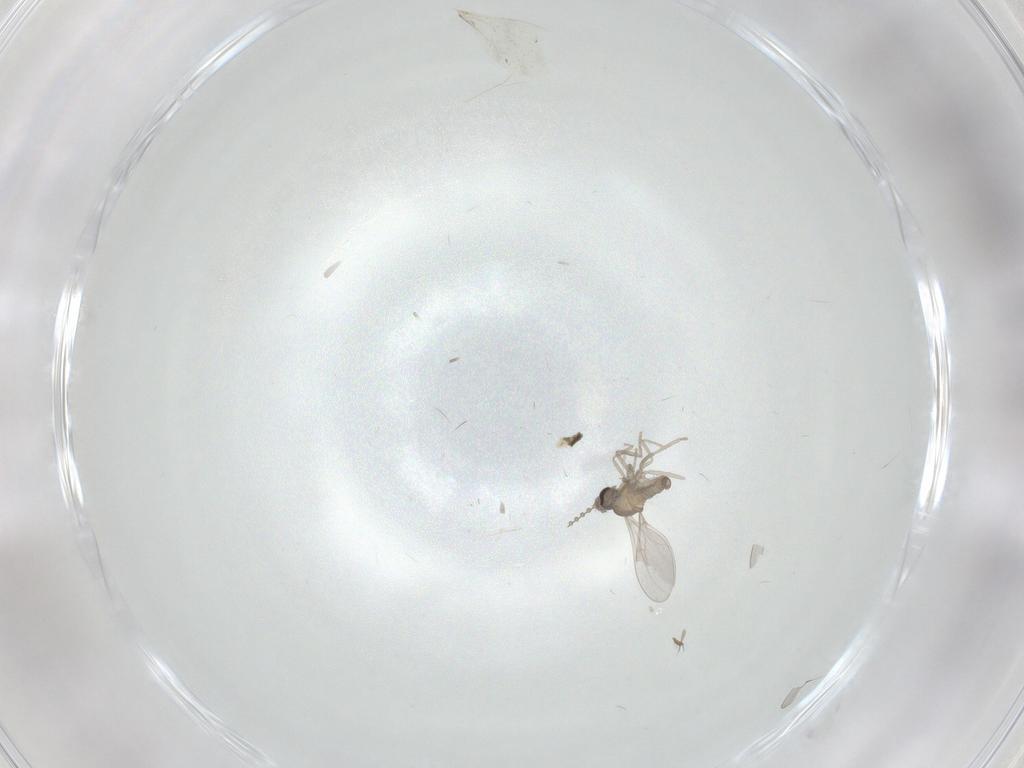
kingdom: Animalia
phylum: Arthropoda
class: Insecta
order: Diptera
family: Cecidomyiidae
